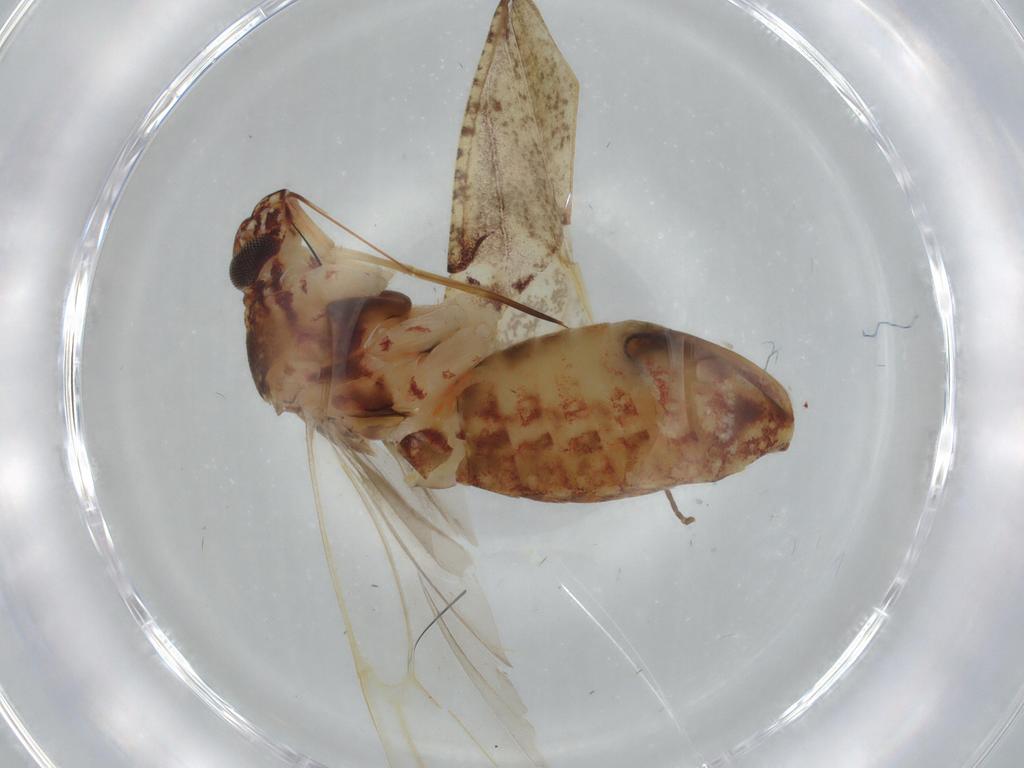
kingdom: Animalia
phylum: Arthropoda
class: Insecta
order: Hemiptera
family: Miridae
